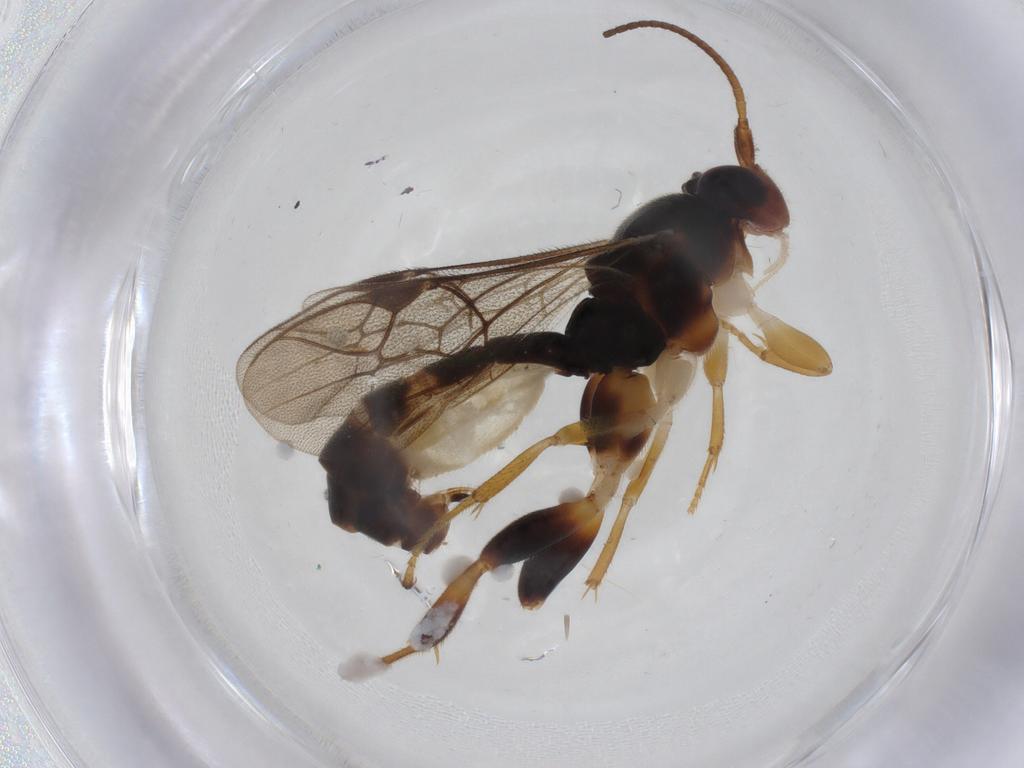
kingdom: Animalia
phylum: Arthropoda
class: Insecta
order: Hymenoptera
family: Ichneumonidae
